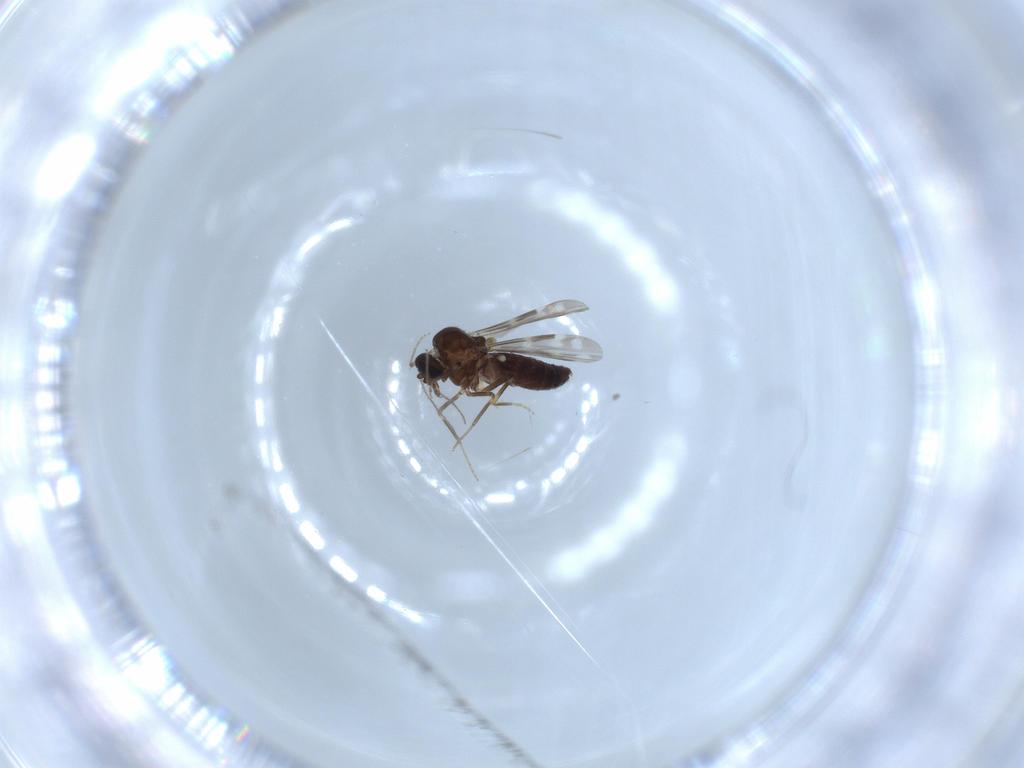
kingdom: Animalia
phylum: Arthropoda
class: Insecta
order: Diptera
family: Ceratopogonidae
